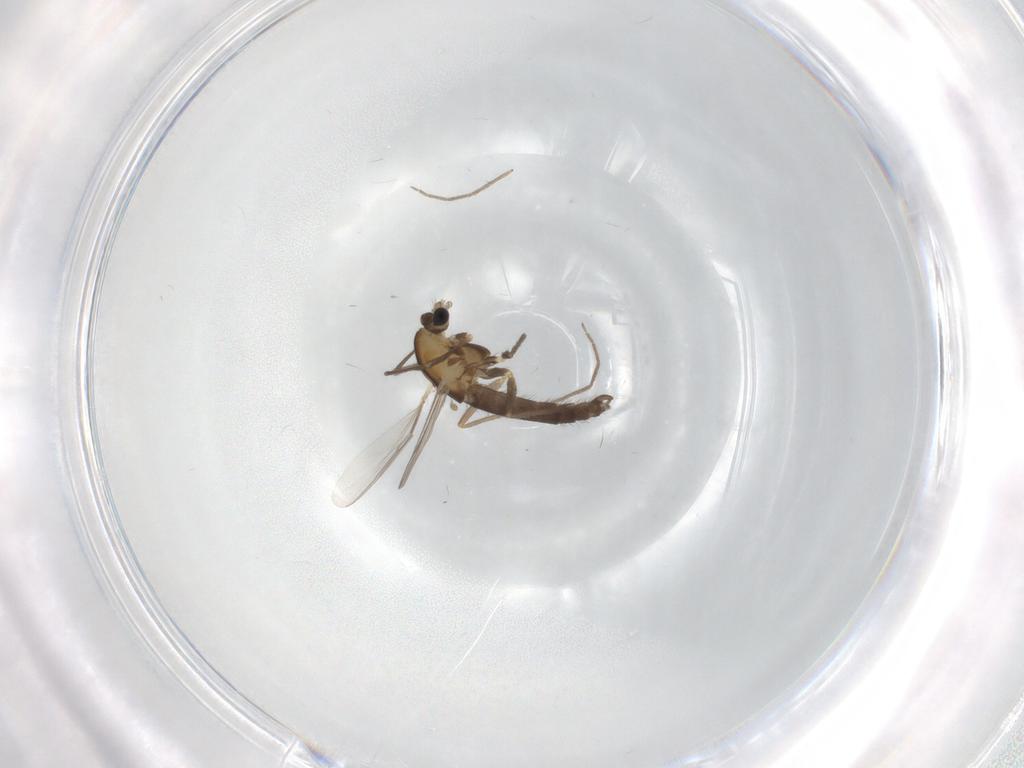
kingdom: Animalia
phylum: Arthropoda
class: Insecta
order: Diptera
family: Chironomidae
